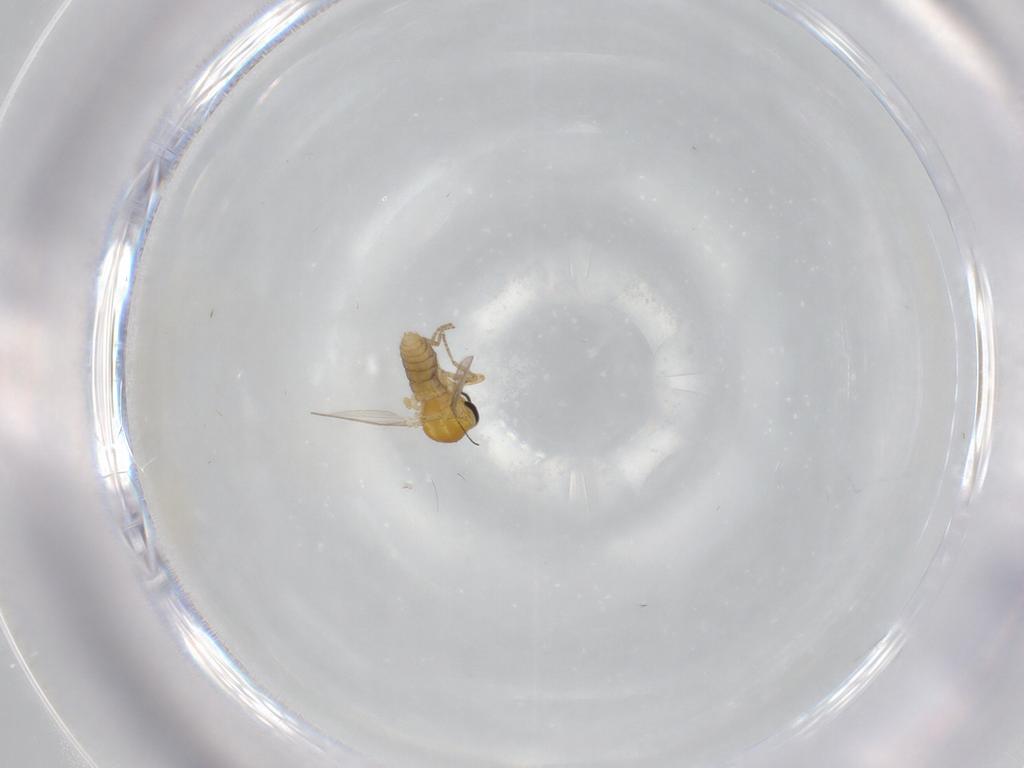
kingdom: Animalia
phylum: Arthropoda
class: Insecta
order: Diptera
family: Ceratopogonidae
